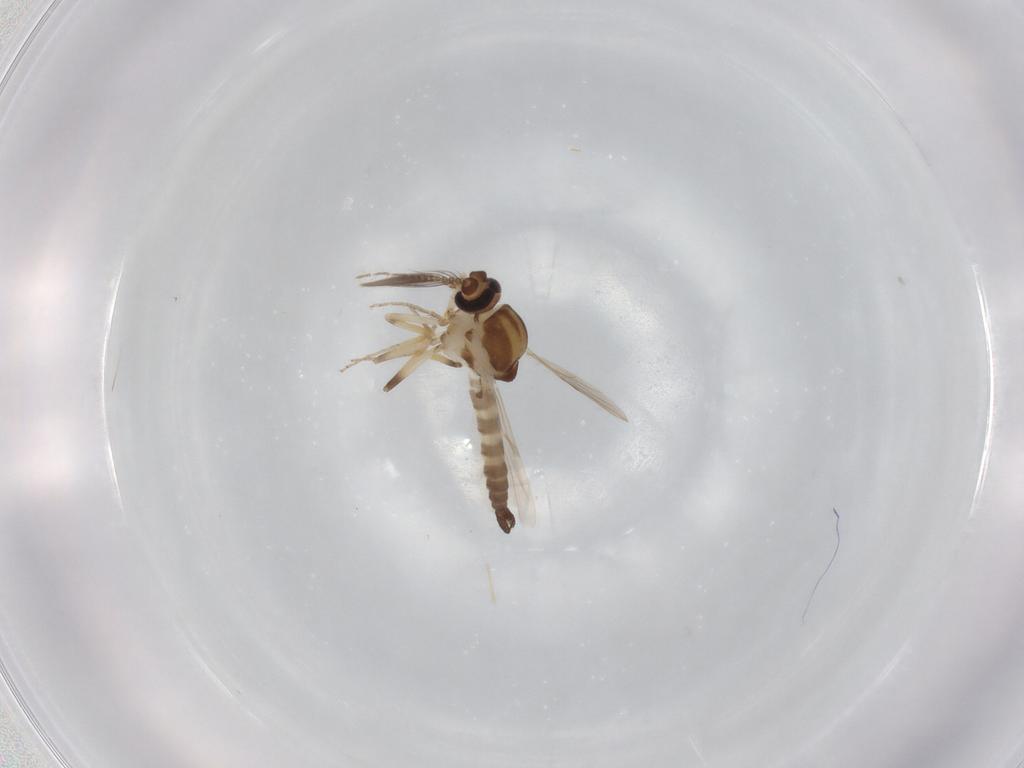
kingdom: Animalia
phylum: Arthropoda
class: Insecta
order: Diptera
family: Ceratopogonidae
